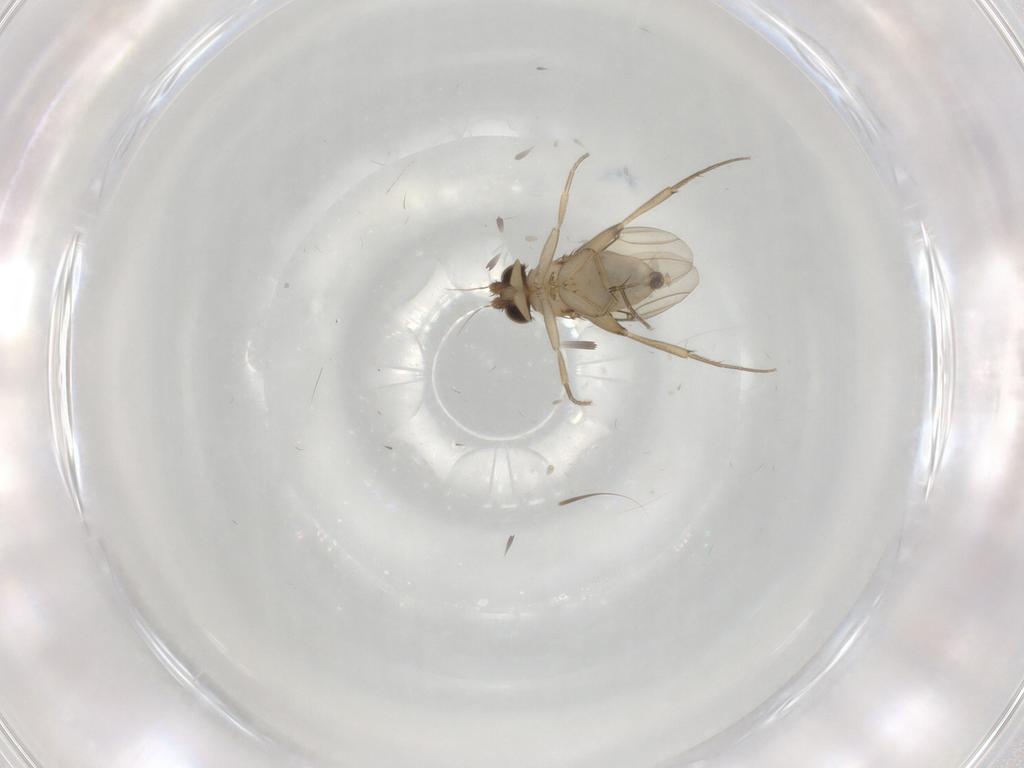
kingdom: Animalia
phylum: Arthropoda
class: Insecta
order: Diptera
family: Phoridae
